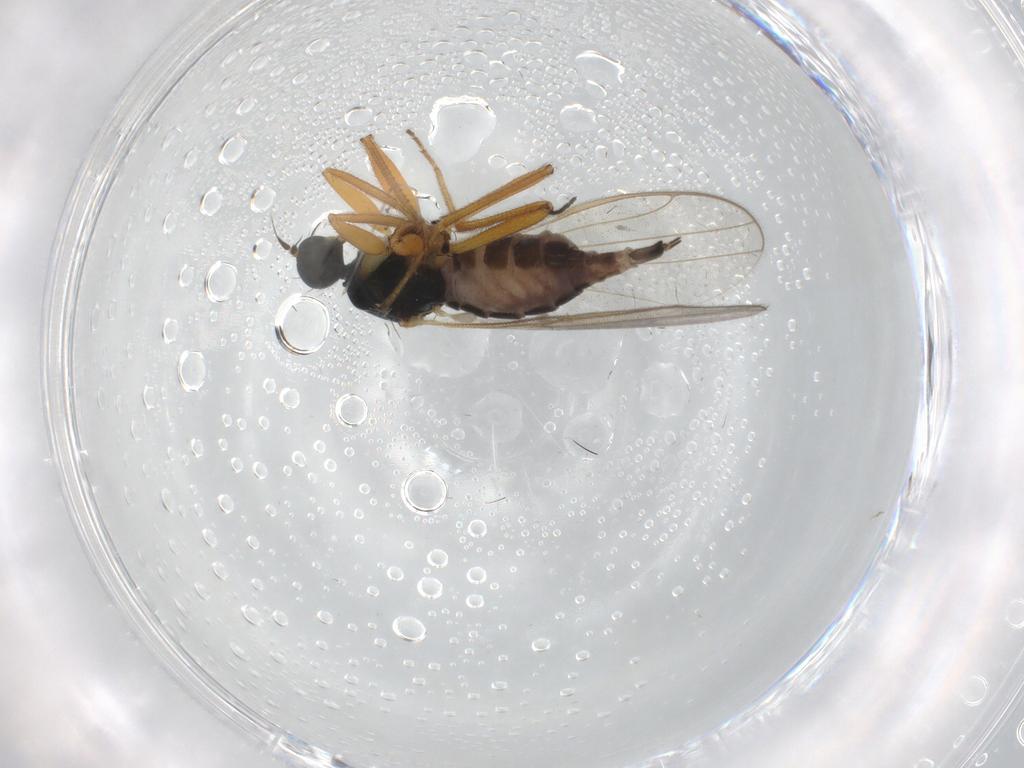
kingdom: Animalia
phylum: Arthropoda
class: Insecta
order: Diptera
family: Hybotidae
